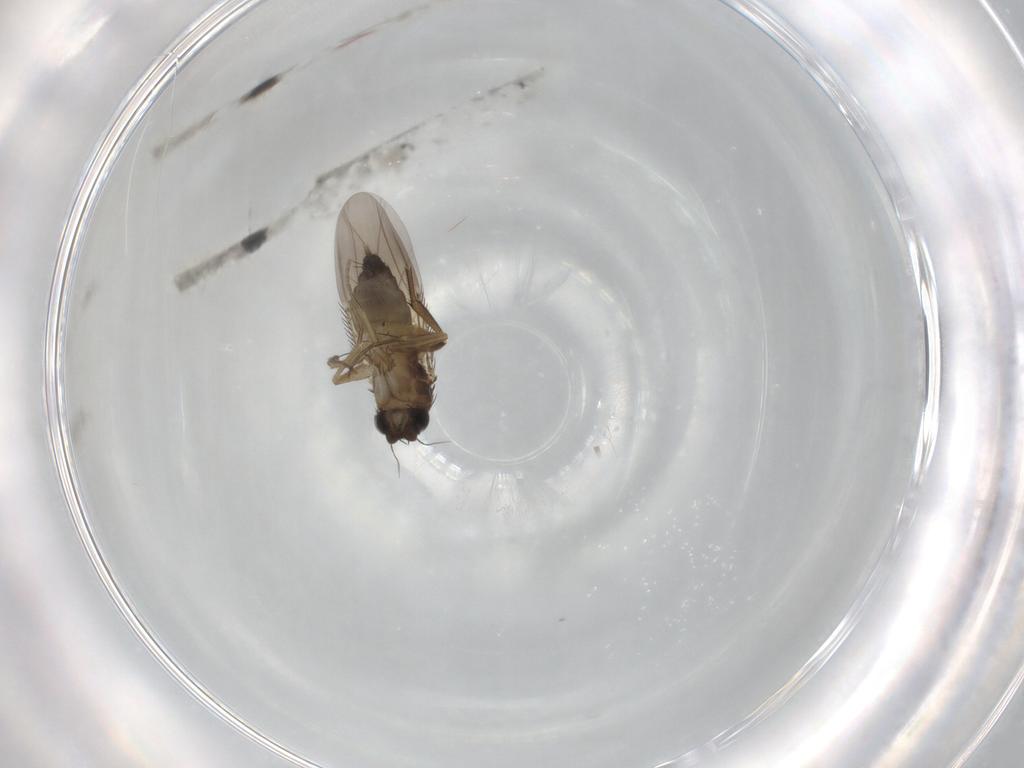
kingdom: Animalia
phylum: Arthropoda
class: Insecta
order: Diptera
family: Phoridae
